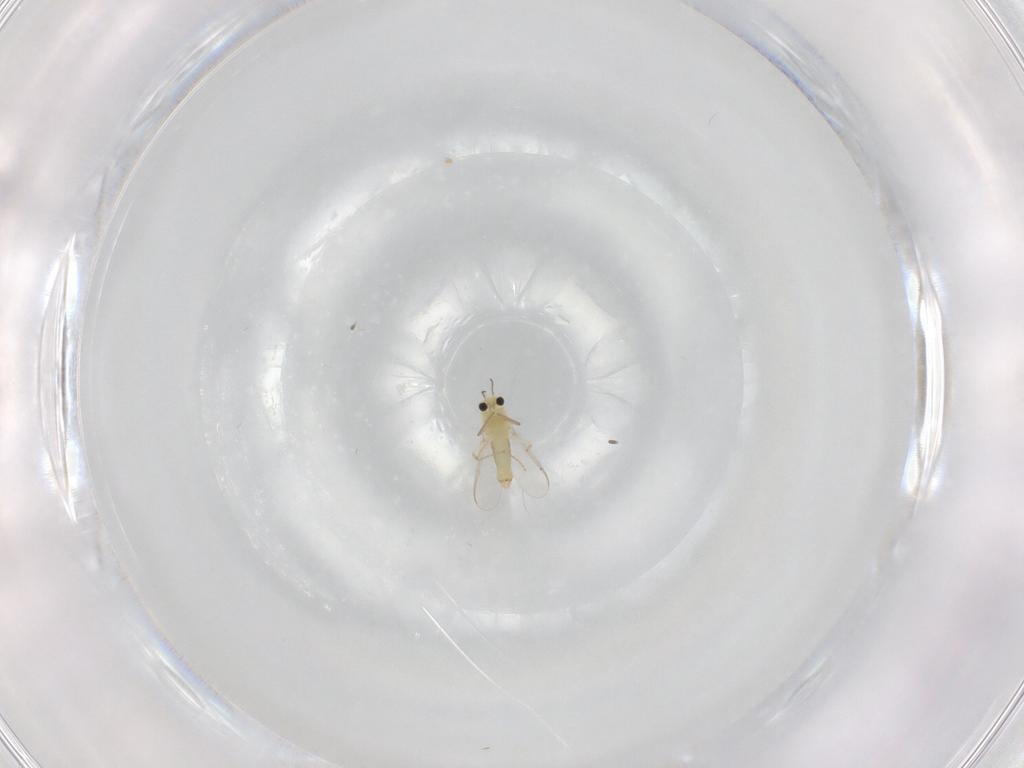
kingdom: Animalia
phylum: Arthropoda
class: Insecta
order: Diptera
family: Chironomidae
